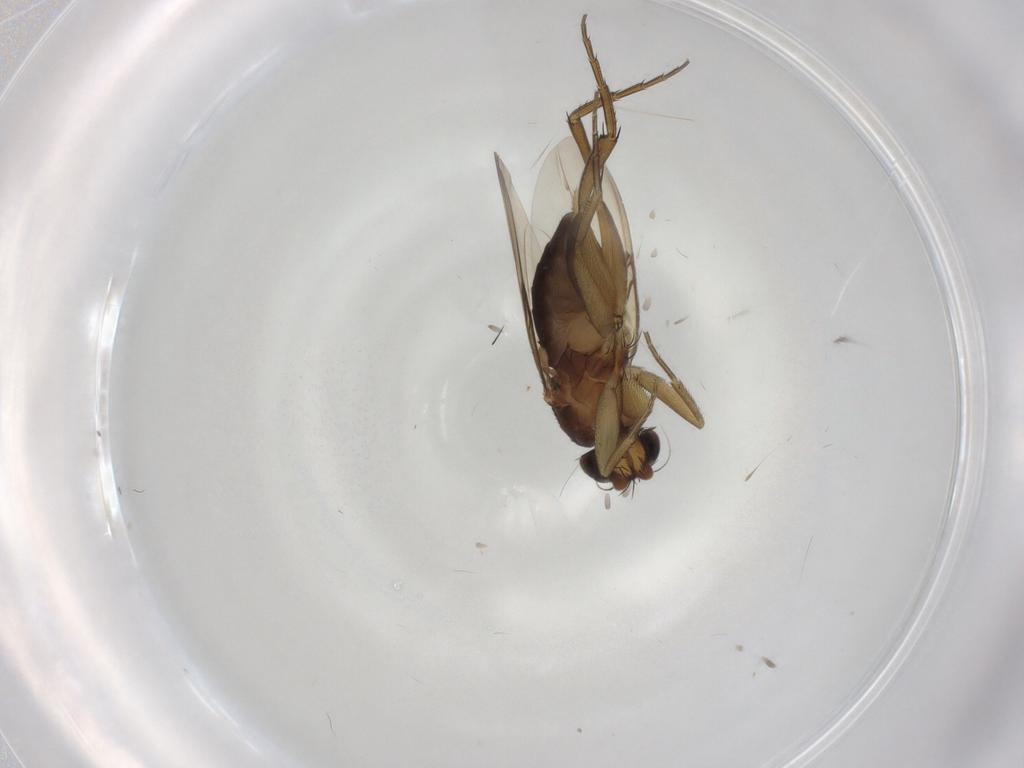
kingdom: Animalia
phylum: Arthropoda
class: Insecta
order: Diptera
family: Phoridae
